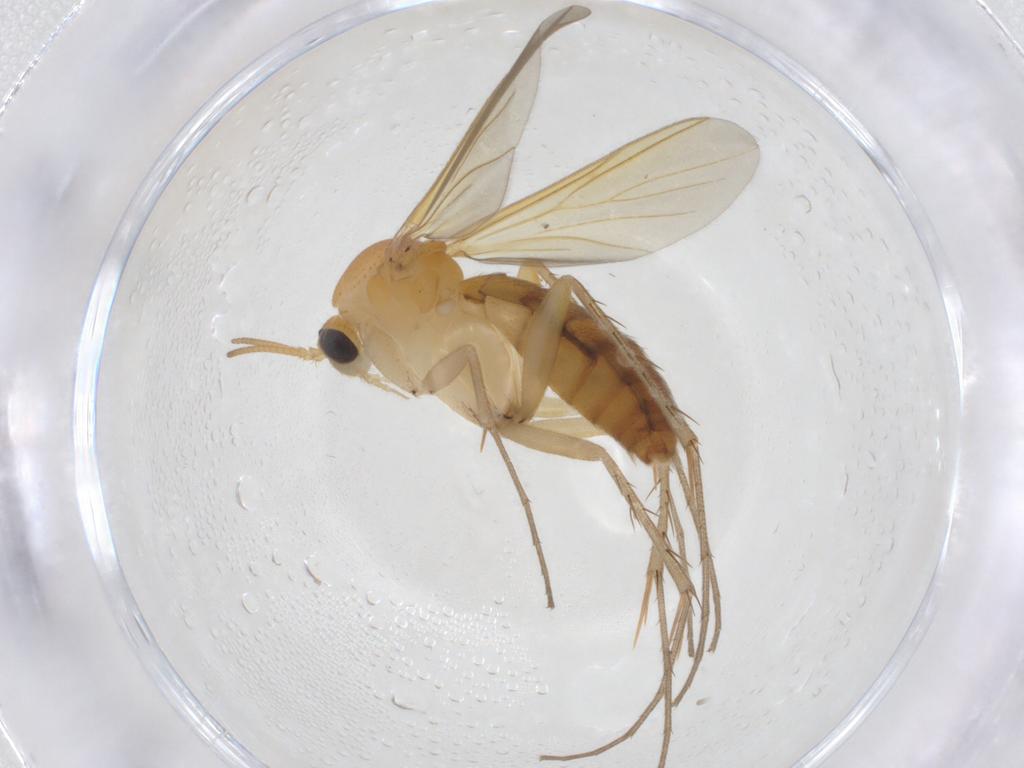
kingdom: Animalia
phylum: Arthropoda
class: Insecta
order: Diptera
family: Mycetophilidae
